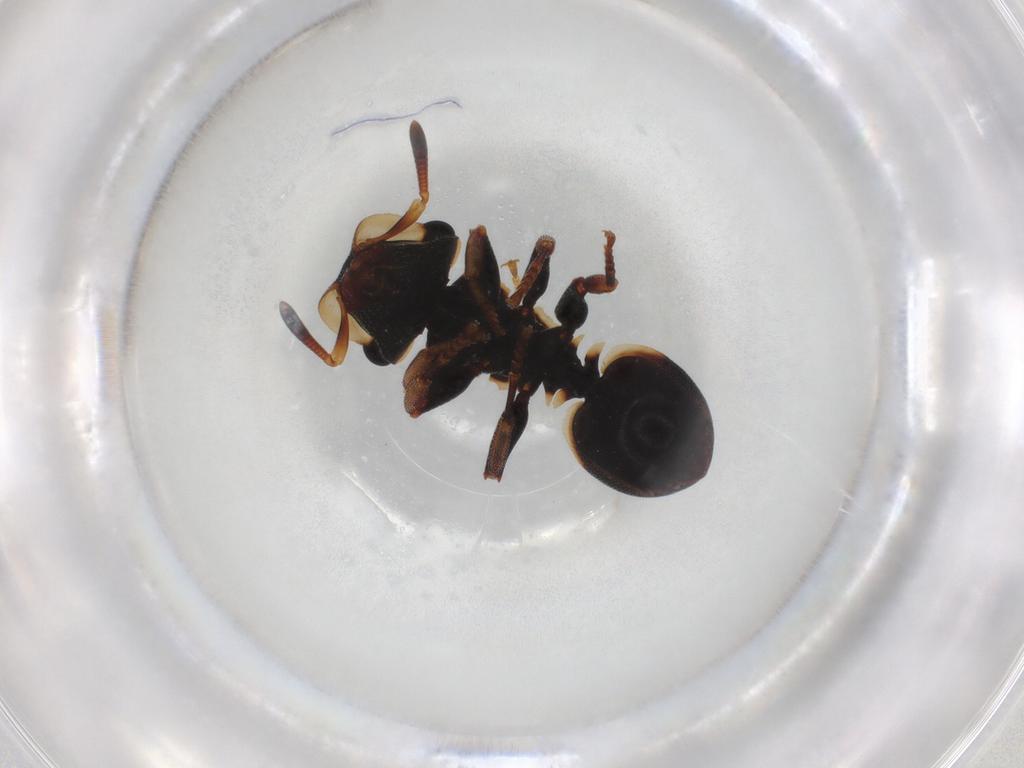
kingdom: Animalia
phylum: Arthropoda
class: Insecta
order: Hymenoptera
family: Formicidae
